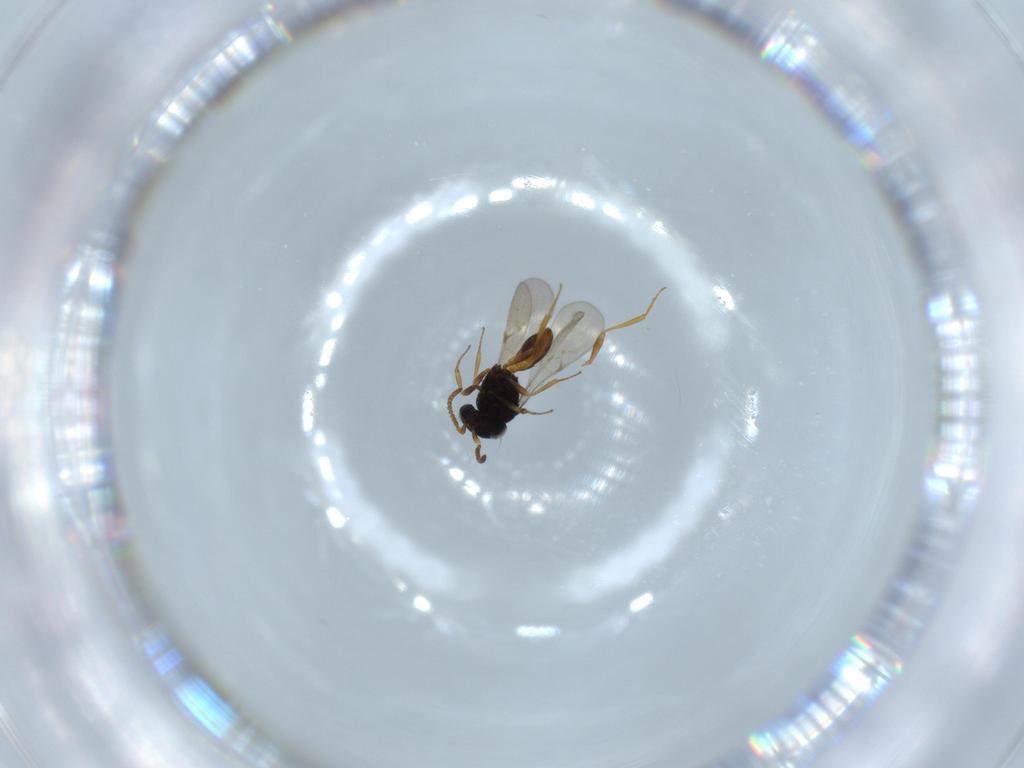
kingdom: Animalia
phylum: Arthropoda
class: Insecta
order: Hymenoptera
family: Scelionidae
